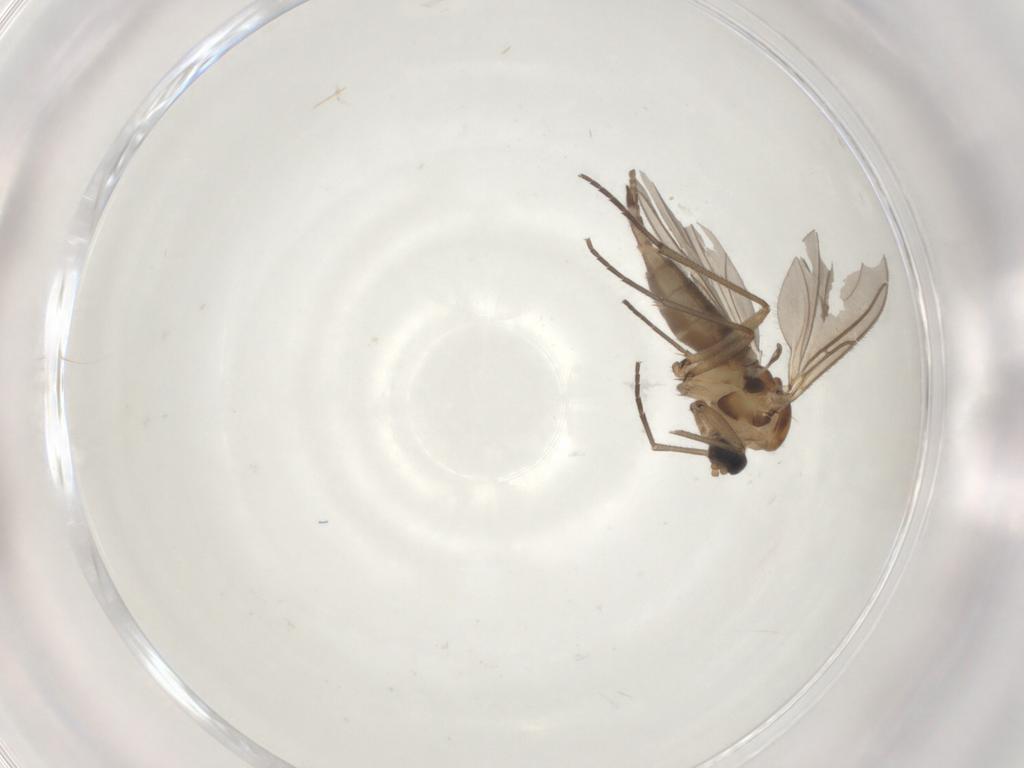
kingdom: Animalia
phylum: Arthropoda
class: Insecta
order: Diptera
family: Sciaridae
